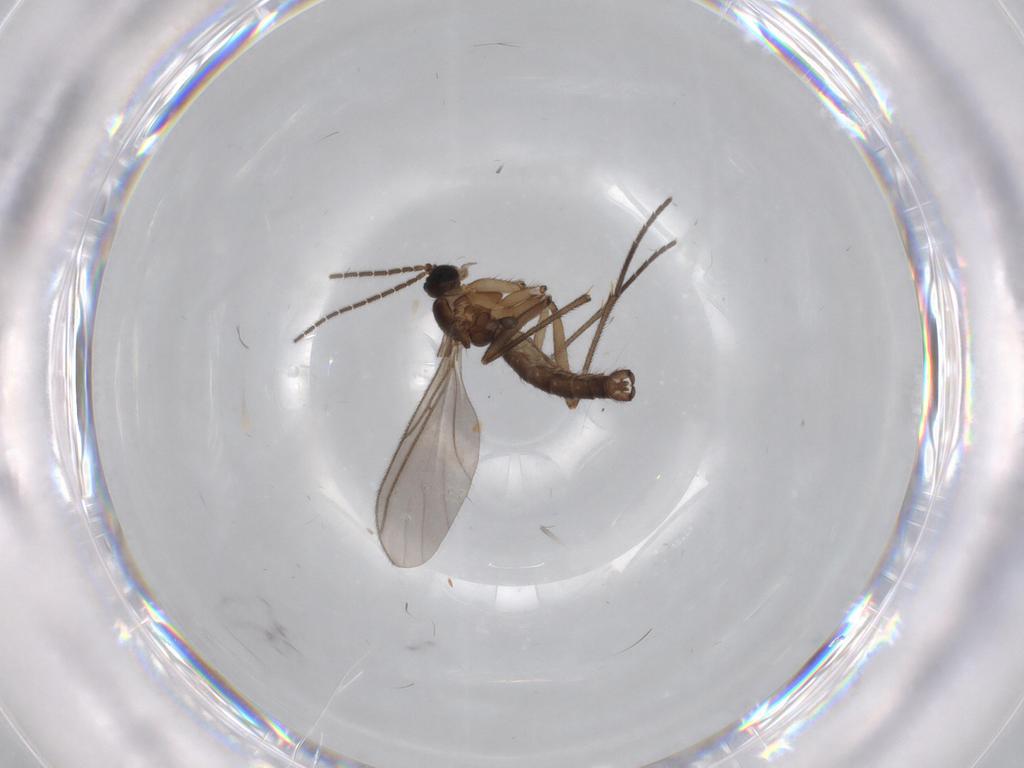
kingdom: Animalia
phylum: Arthropoda
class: Insecta
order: Diptera
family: Sciaridae
